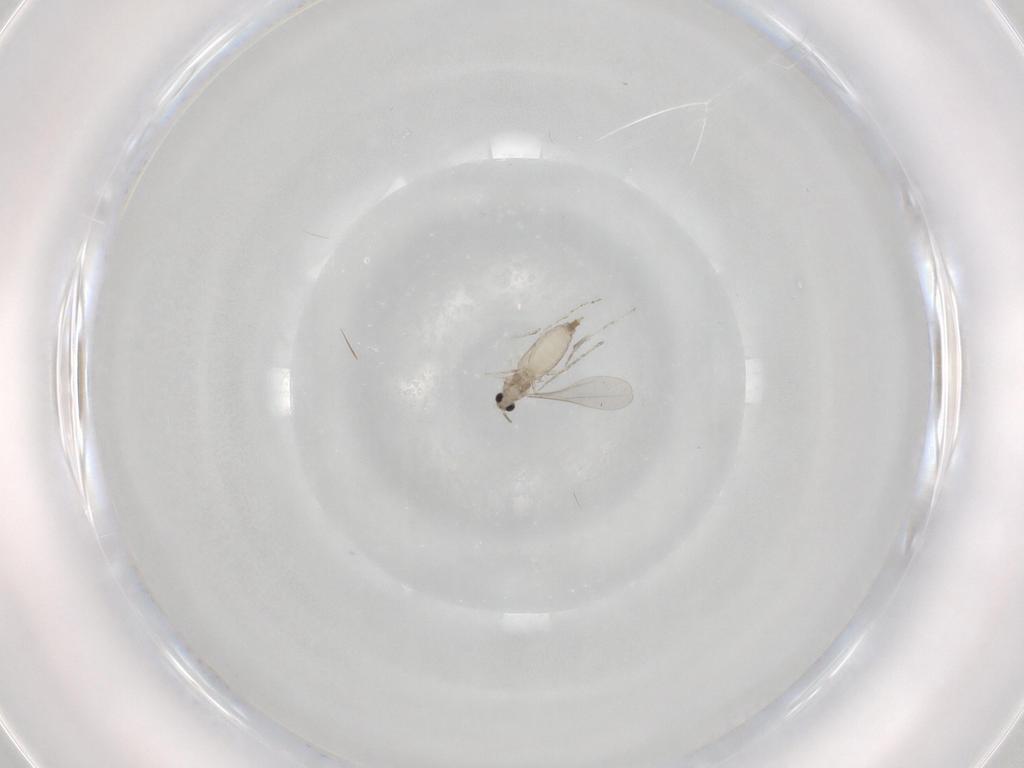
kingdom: Animalia
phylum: Arthropoda
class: Insecta
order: Diptera
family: Cecidomyiidae
